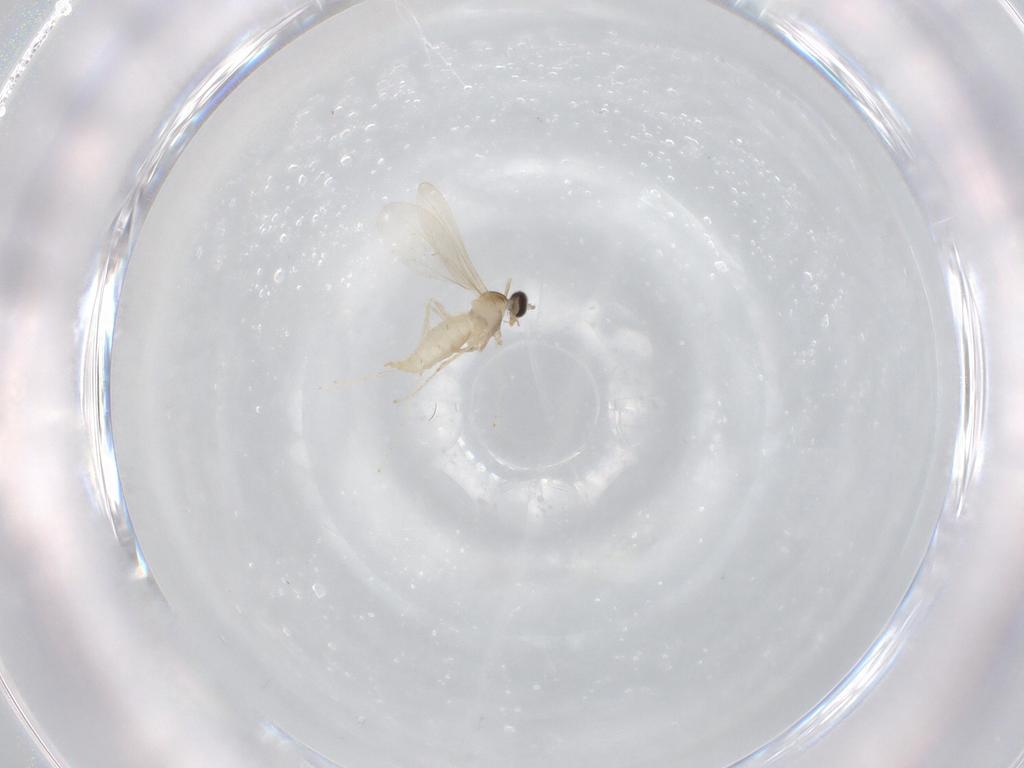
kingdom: Animalia
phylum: Arthropoda
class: Insecta
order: Diptera
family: Cecidomyiidae
